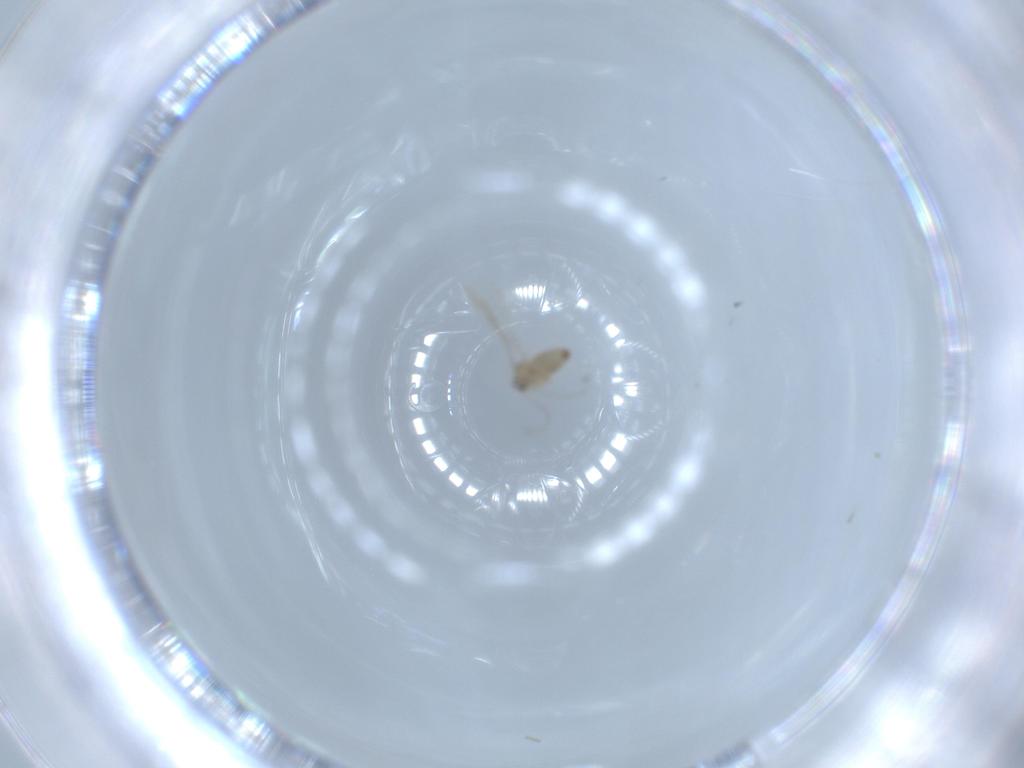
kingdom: Animalia
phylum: Arthropoda
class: Insecta
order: Diptera
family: Cecidomyiidae
